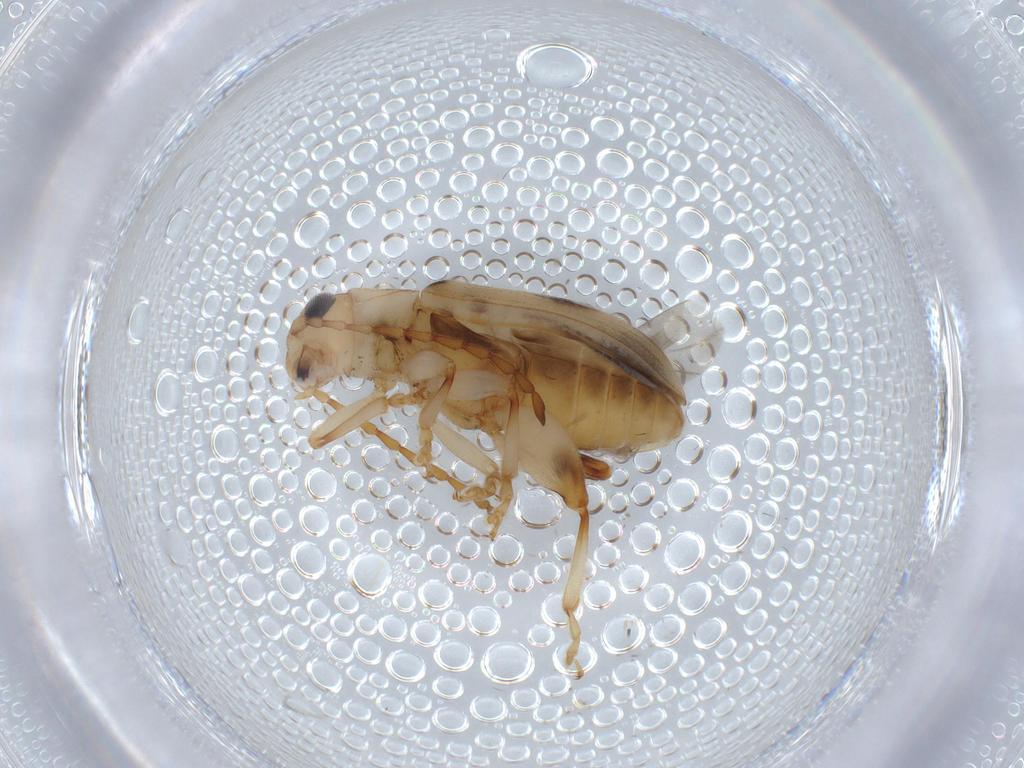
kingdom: Animalia
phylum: Arthropoda
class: Insecta
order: Coleoptera
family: Chrysomelidae
